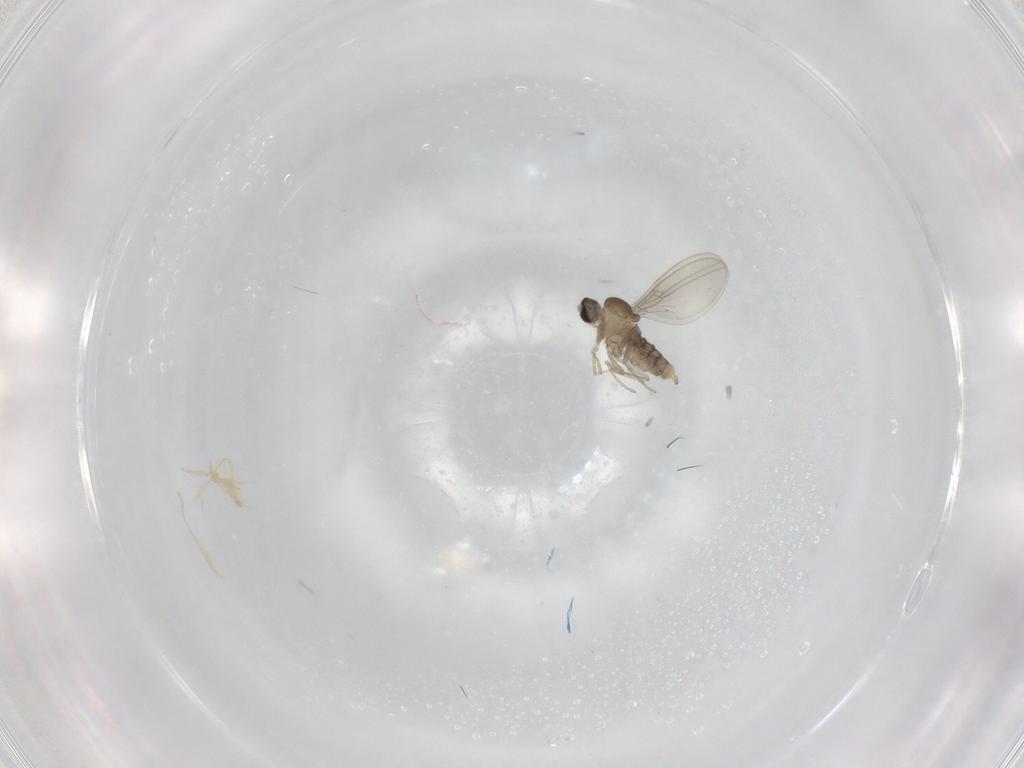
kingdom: Animalia
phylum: Arthropoda
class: Insecta
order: Diptera
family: Cecidomyiidae
